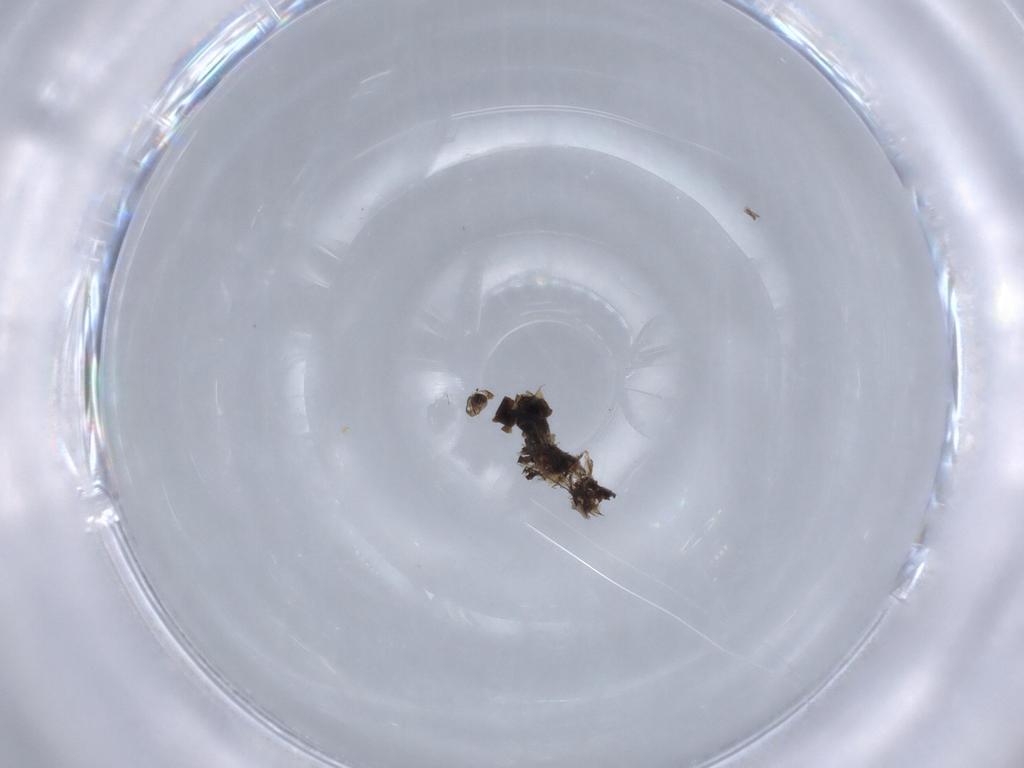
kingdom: Animalia
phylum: Arthropoda
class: Insecta
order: Diptera
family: Phoridae
